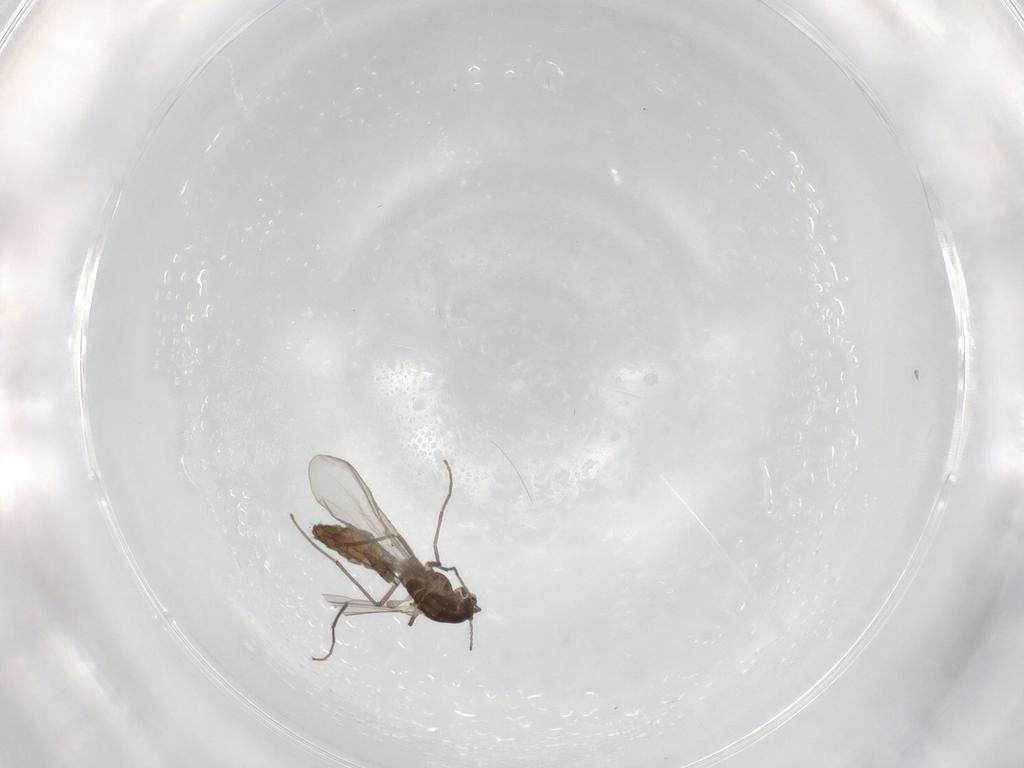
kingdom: Animalia
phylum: Arthropoda
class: Insecta
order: Diptera
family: Chironomidae
